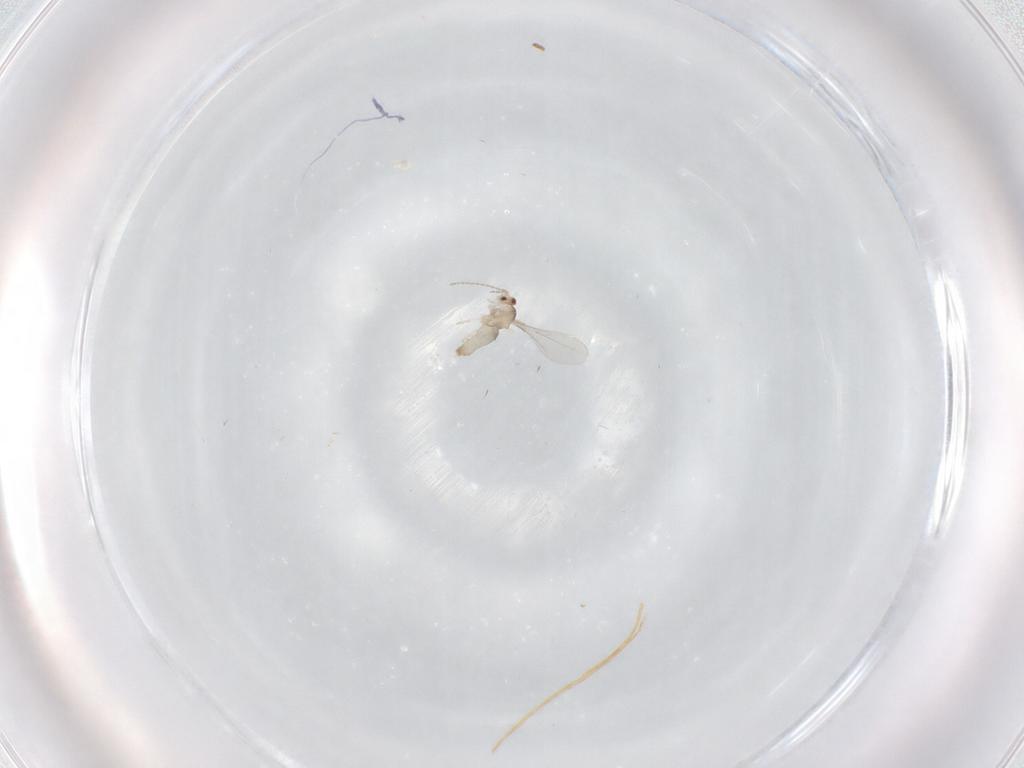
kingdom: Animalia
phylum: Arthropoda
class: Insecta
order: Diptera
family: Cecidomyiidae
